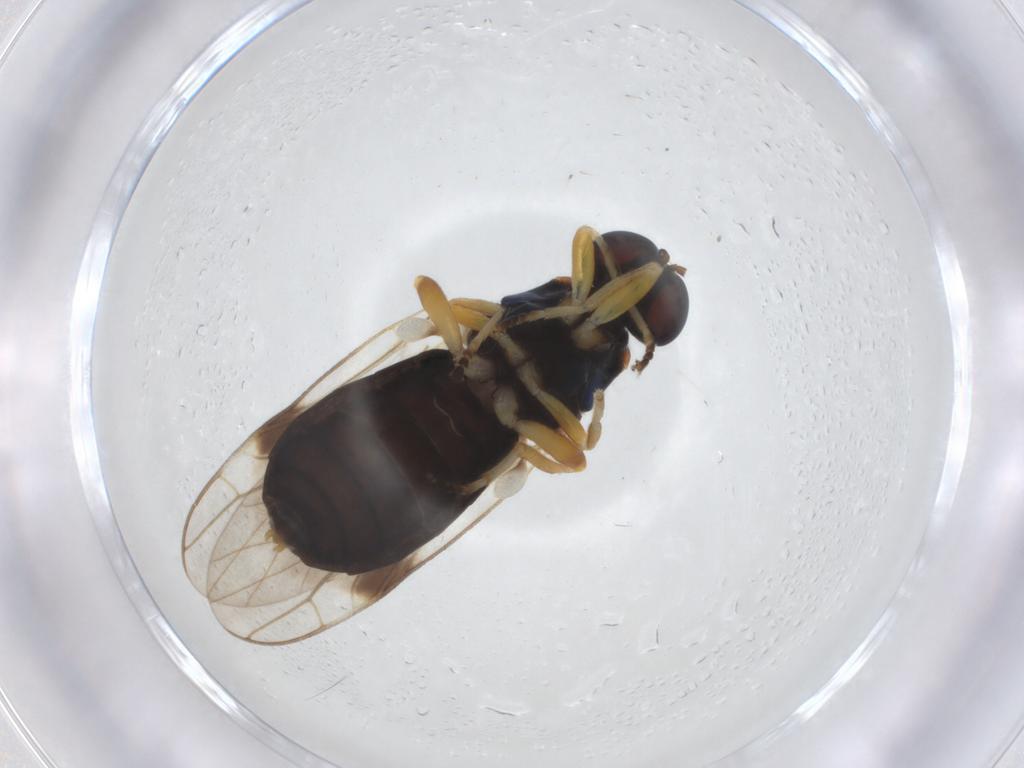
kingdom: Animalia
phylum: Arthropoda
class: Insecta
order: Diptera
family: Stratiomyidae
